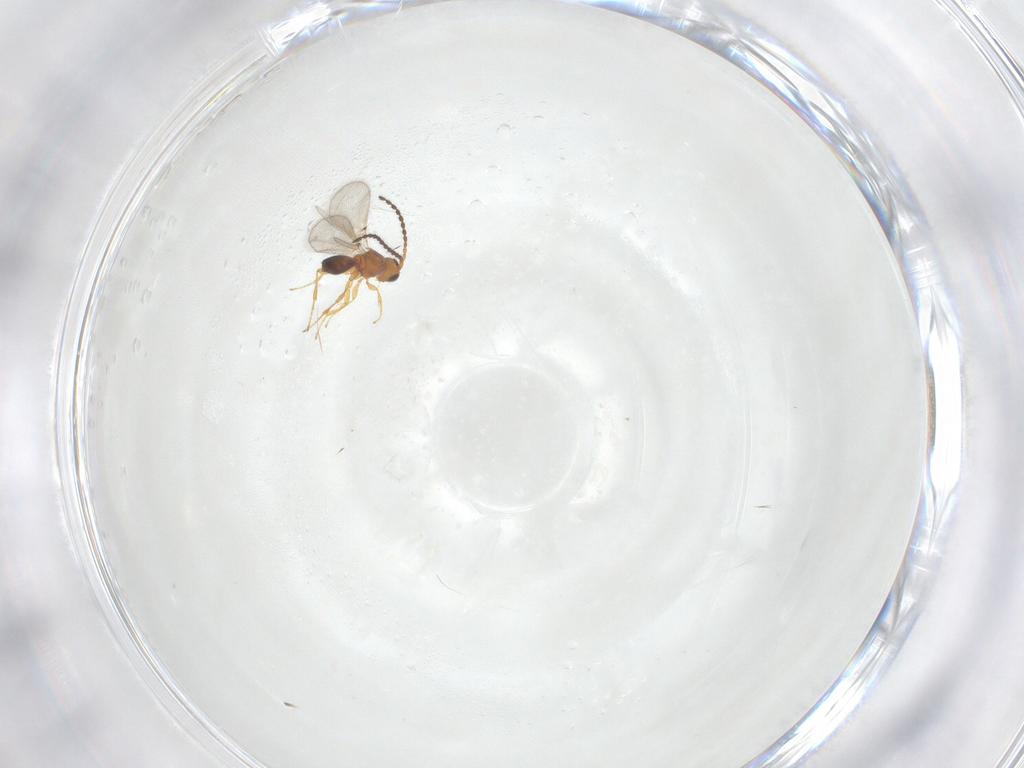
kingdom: Animalia
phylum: Arthropoda
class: Insecta
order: Hymenoptera
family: Diapriidae
